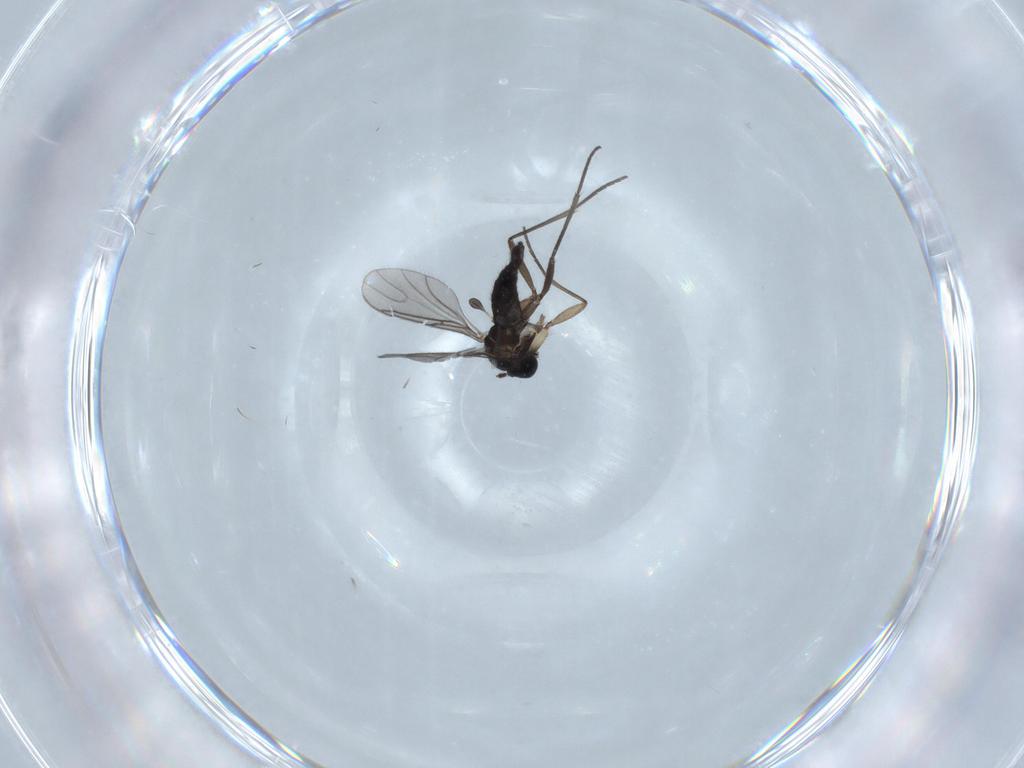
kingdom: Animalia
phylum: Arthropoda
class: Insecta
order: Diptera
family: Sciaridae
